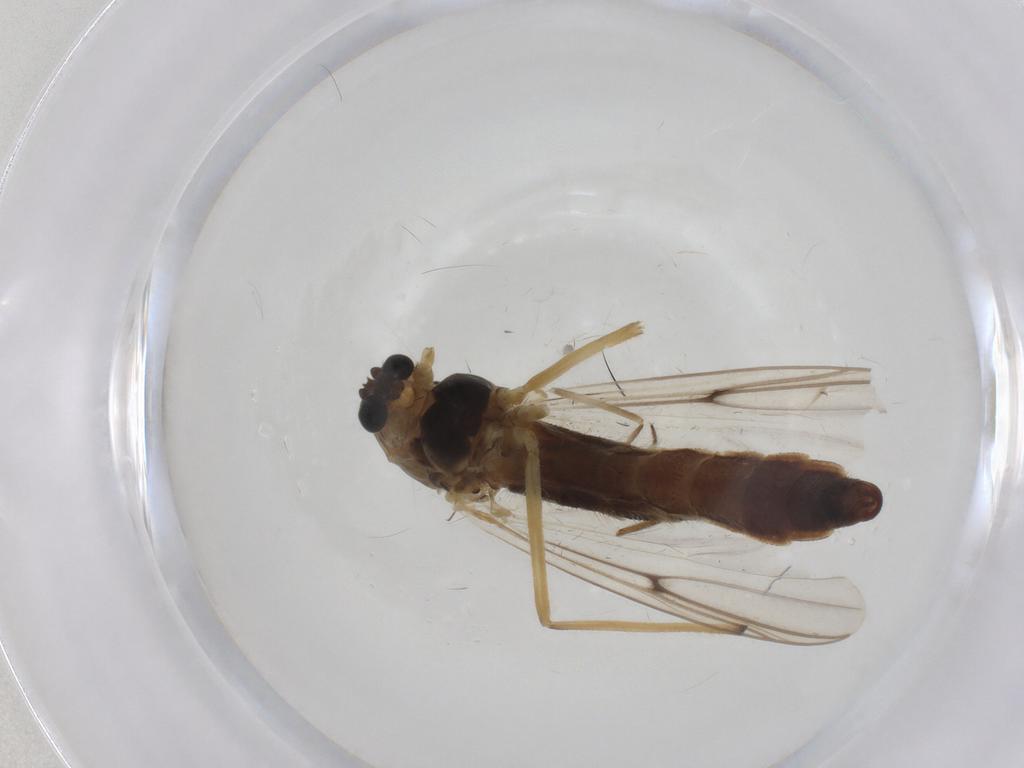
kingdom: Animalia
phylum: Arthropoda
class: Insecta
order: Diptera
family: Chironomidae
